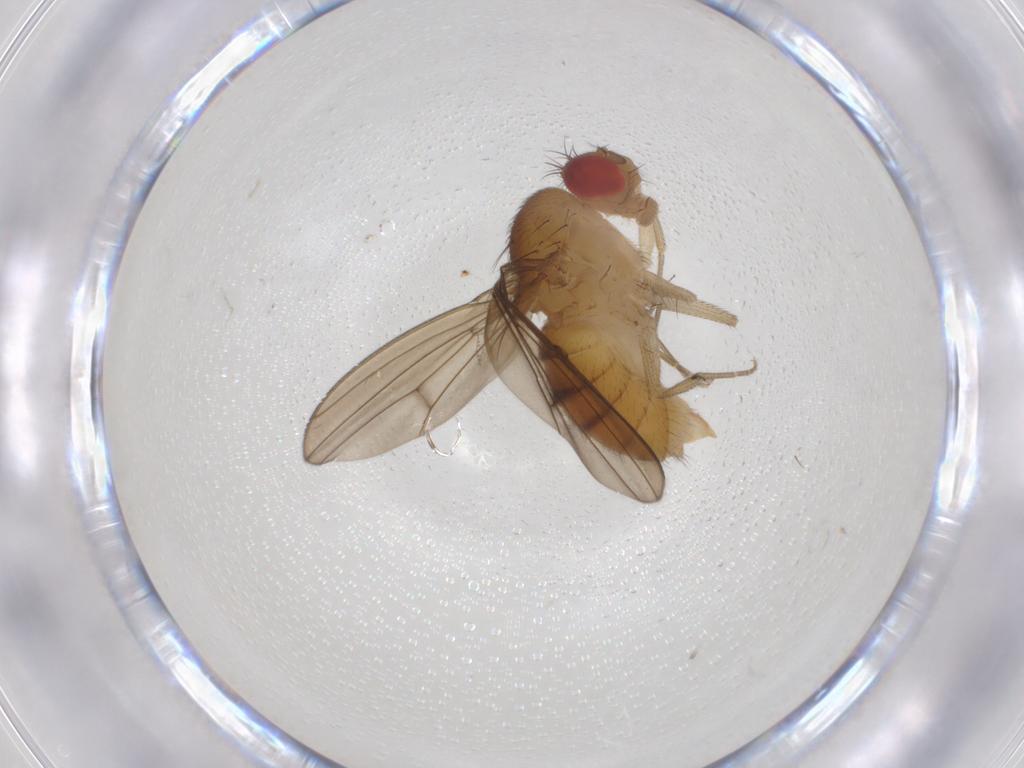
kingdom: Animalia
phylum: Arthropoda
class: Insecta
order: Diptera
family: Drosophilidae
